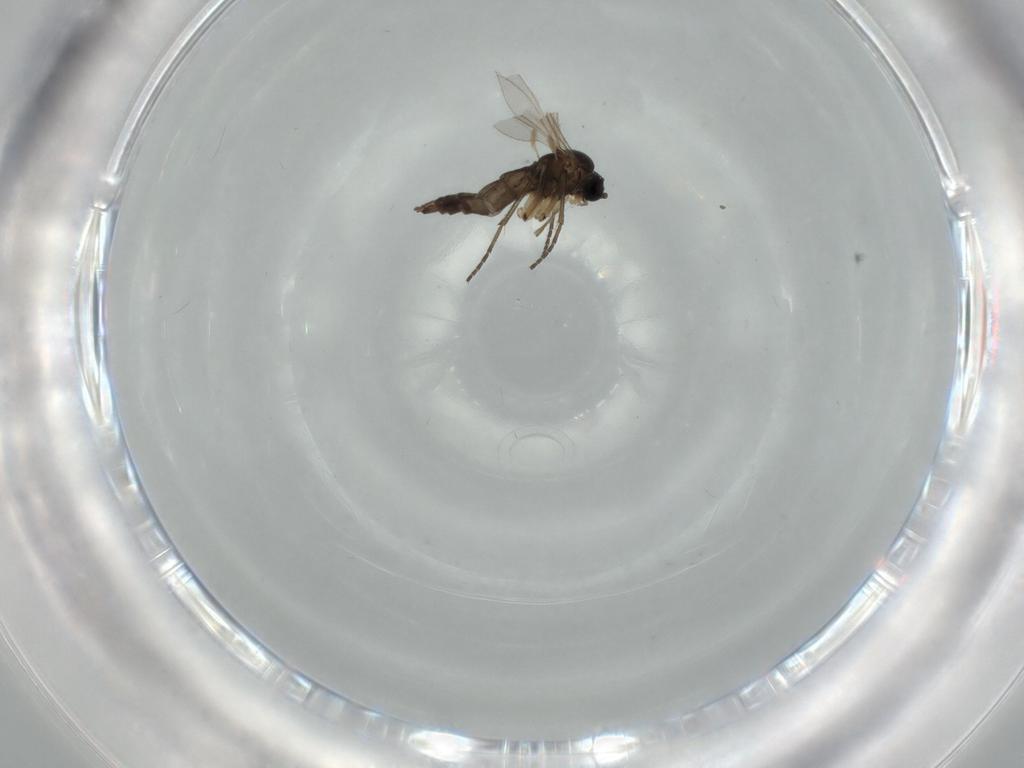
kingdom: Animalia
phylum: Arthropoda
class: Insecta
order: Diptera
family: Sciaridae
